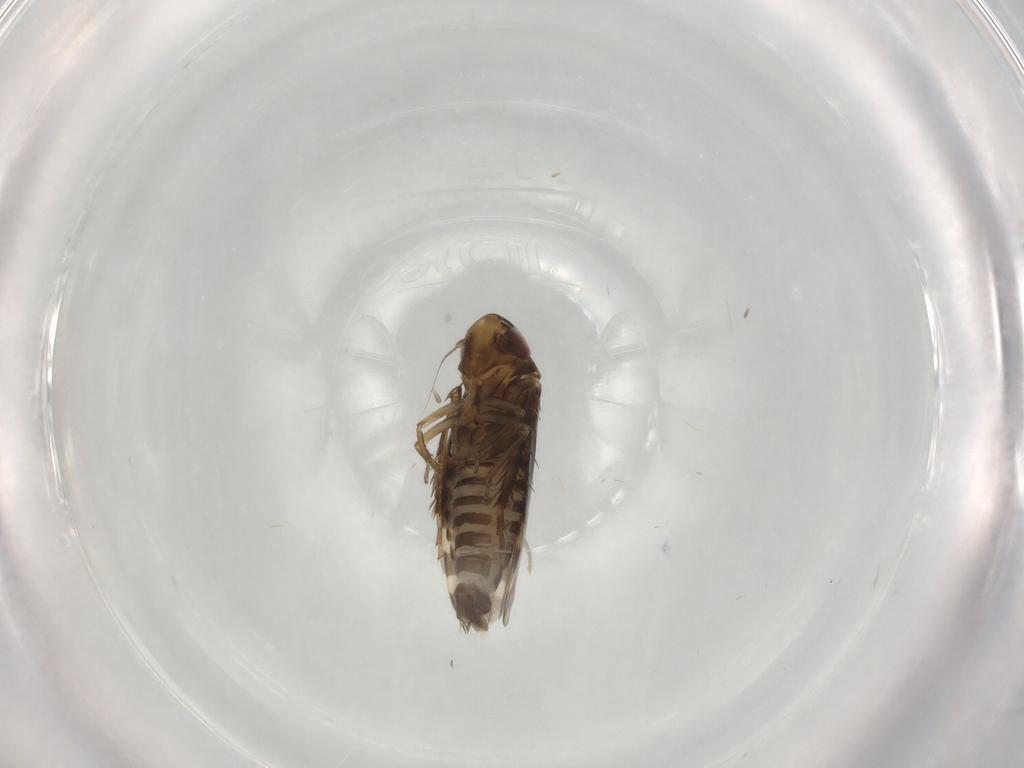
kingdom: Animalia
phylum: Arthropoda
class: Insecta
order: Hemiptera
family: Cicadellidae
